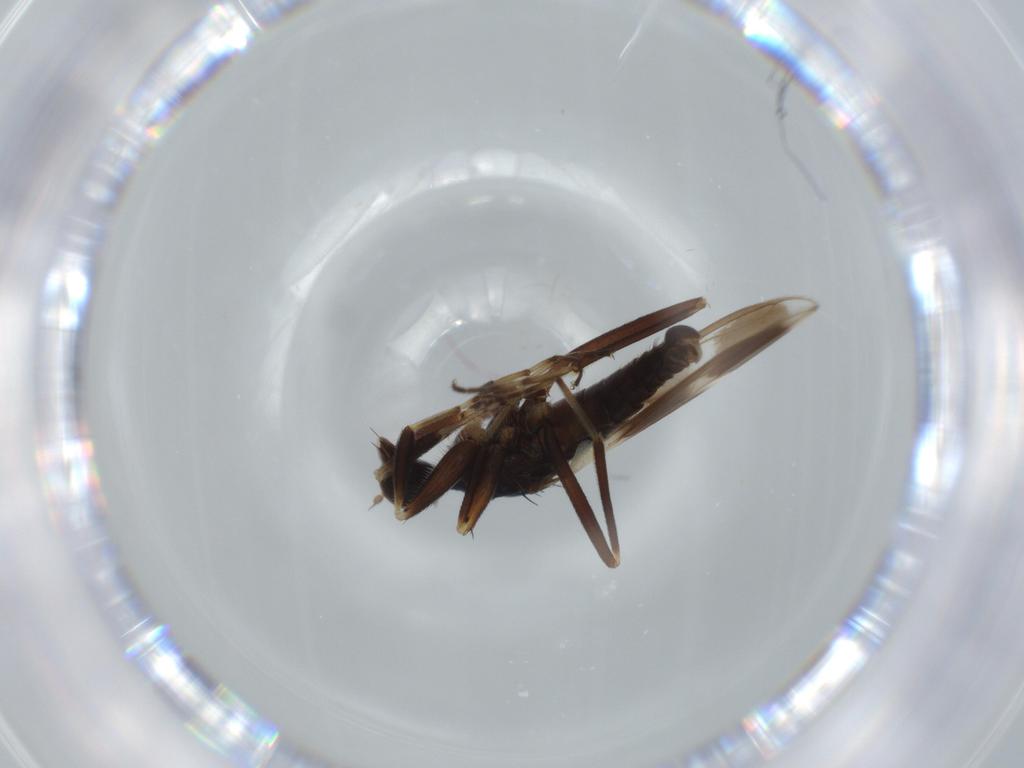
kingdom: Animalia
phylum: Arthropoda
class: Insecta
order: Diptera
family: Hybotidae
